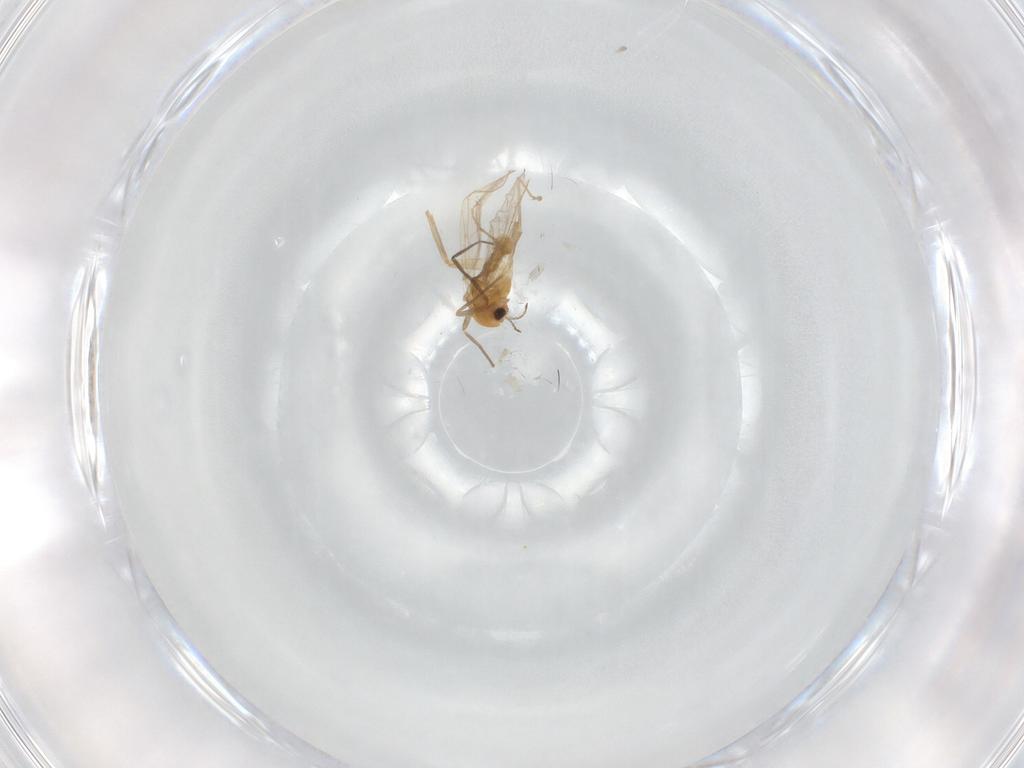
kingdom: Animalia
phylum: Arthropoda
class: Insecta
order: Diptera
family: Chironomidae
